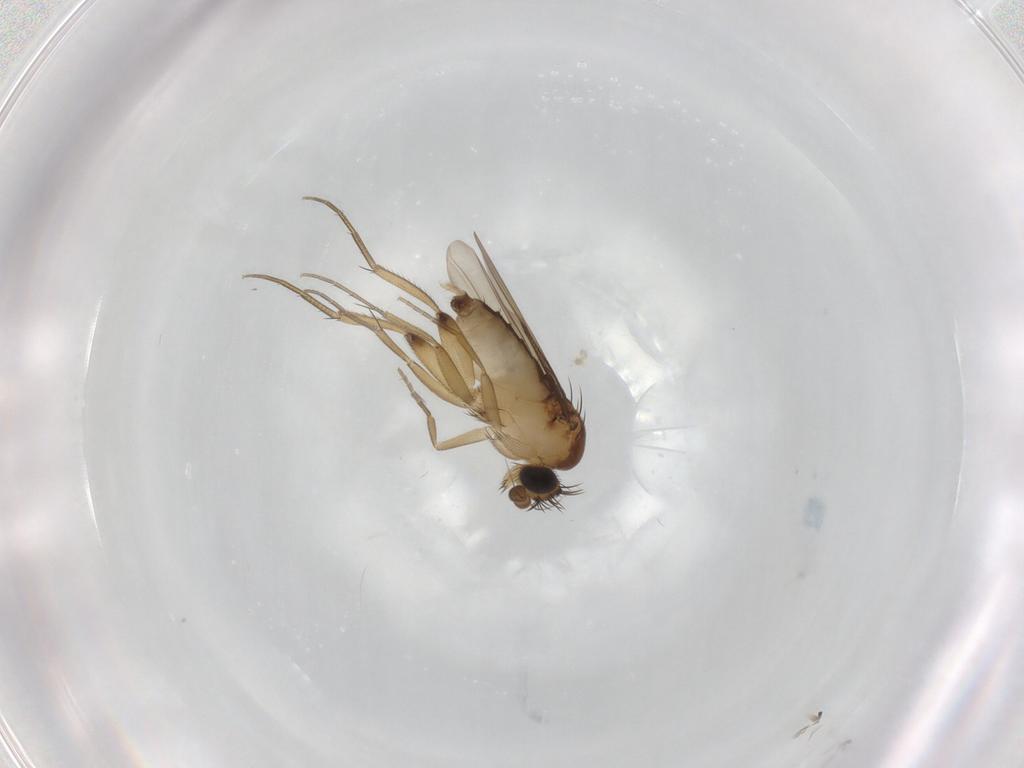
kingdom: Animalia
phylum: Arthropoda
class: Insecta
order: Diptera
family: Phoridae
